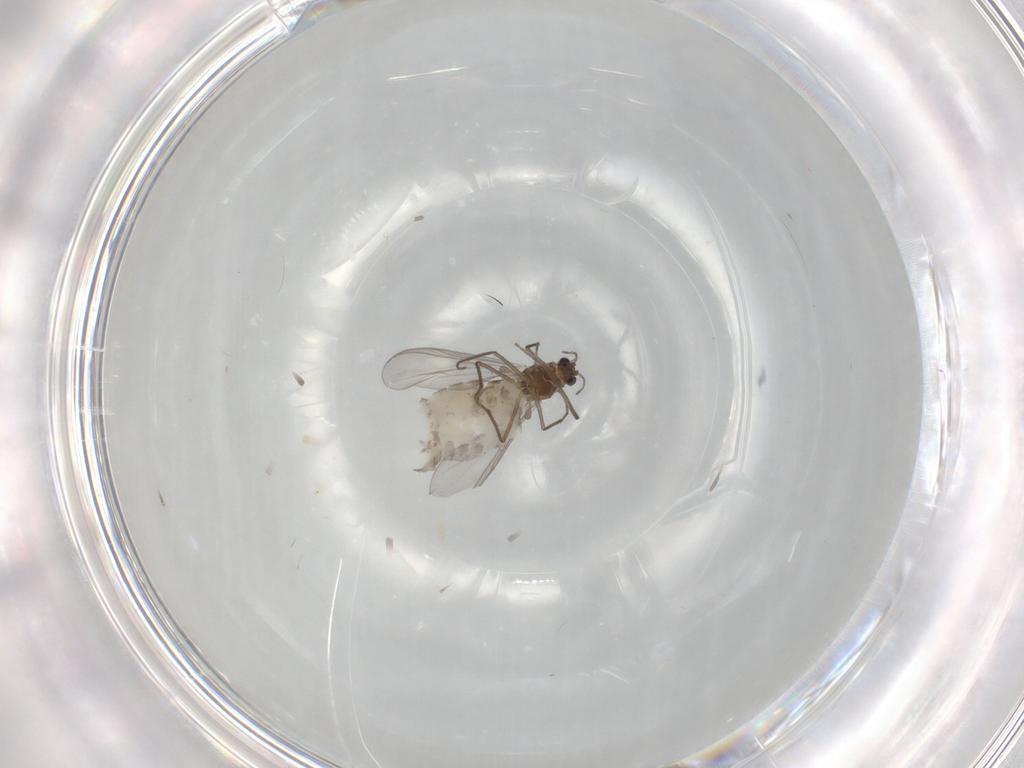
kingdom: Animalia
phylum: Arthropoda
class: Insecta
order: Diptera
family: Chironomidae
